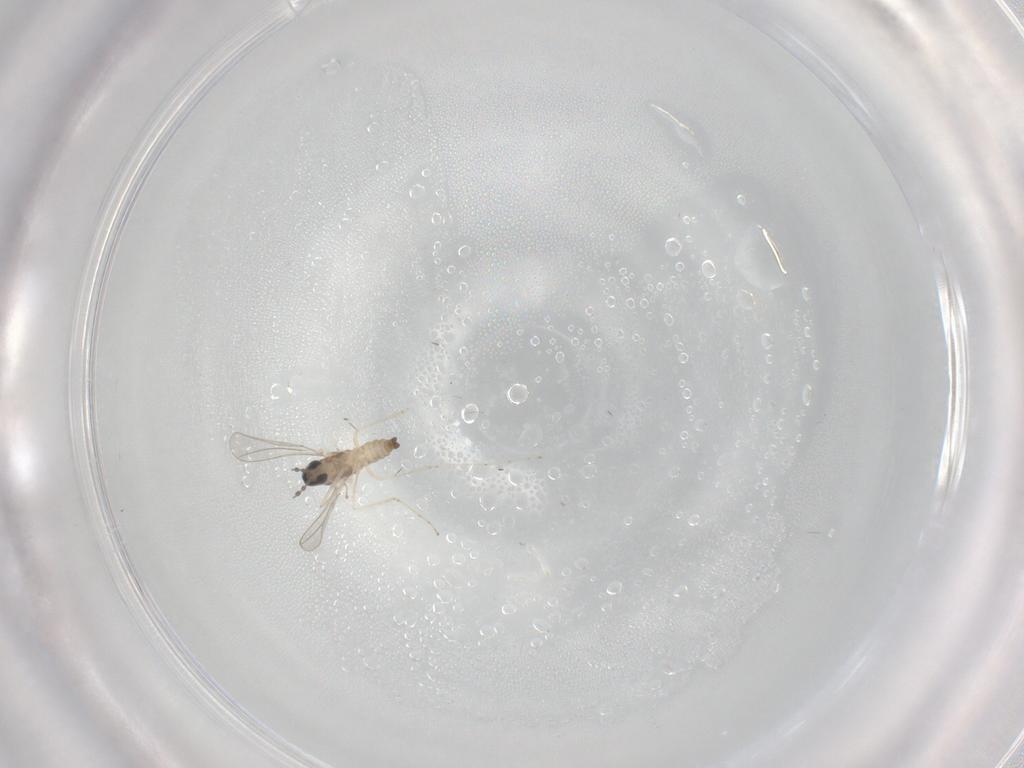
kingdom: Animalia
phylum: Arthropoda
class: Insecta
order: Diptera
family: Cecidomyiidae
